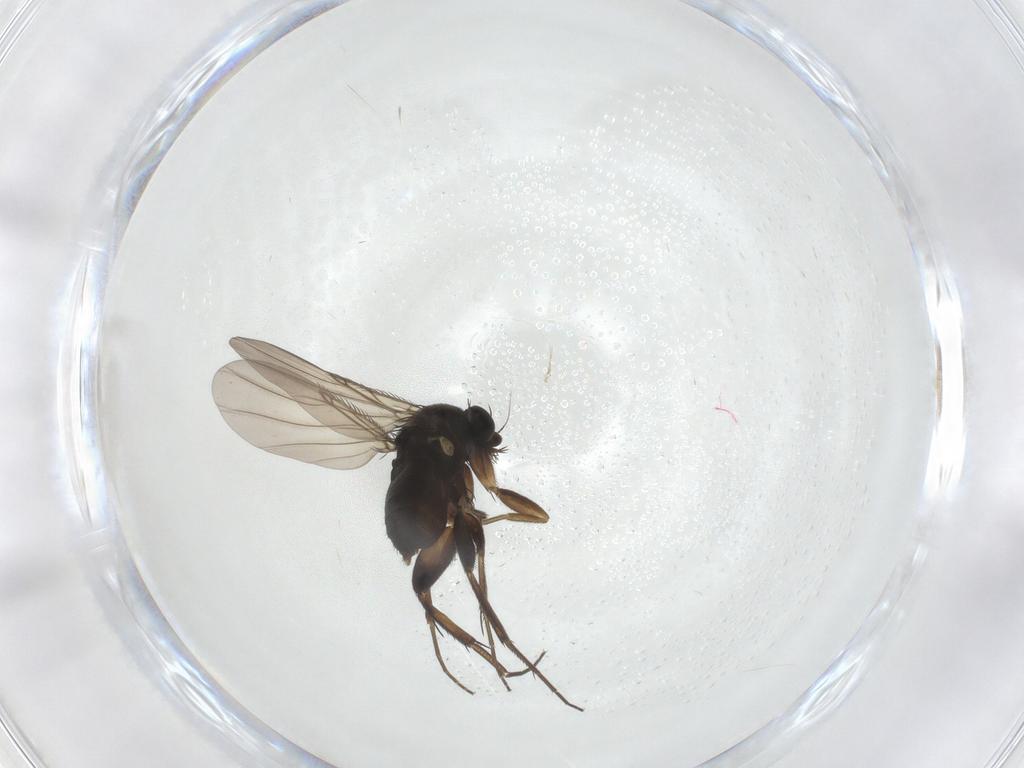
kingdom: Animalia
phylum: Arthropoda
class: Insecta
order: Diptera
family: Phoridae
